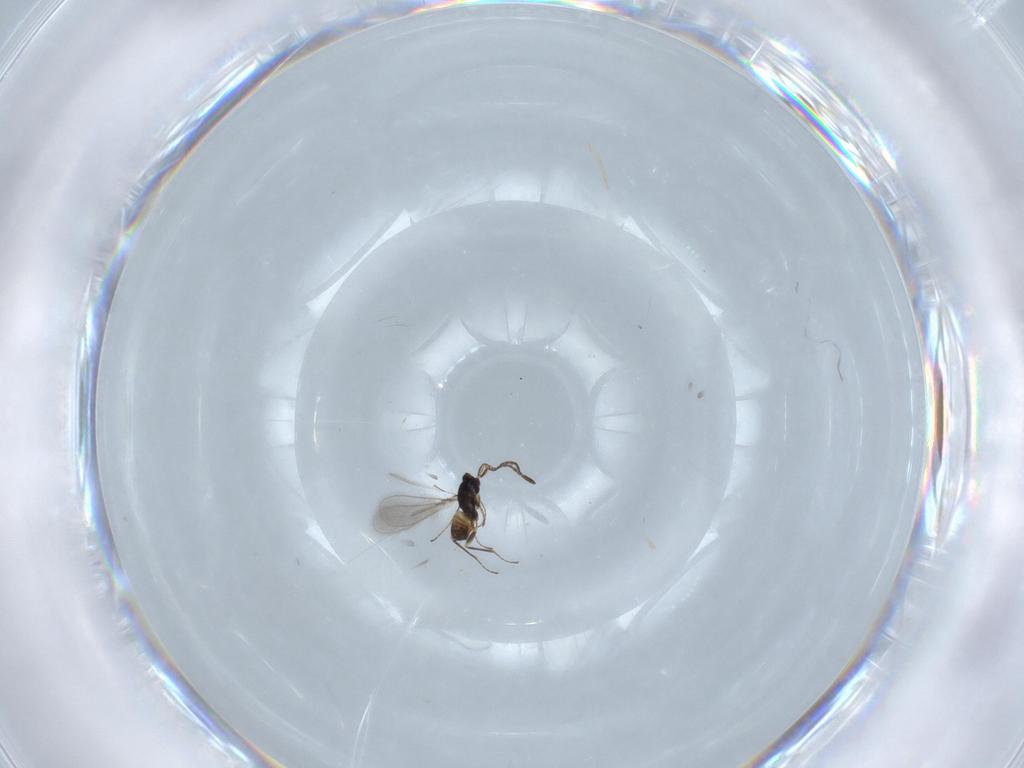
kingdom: Animalia
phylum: Arthropoda
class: Insecta
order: Hymenoptera
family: Mymaridae
